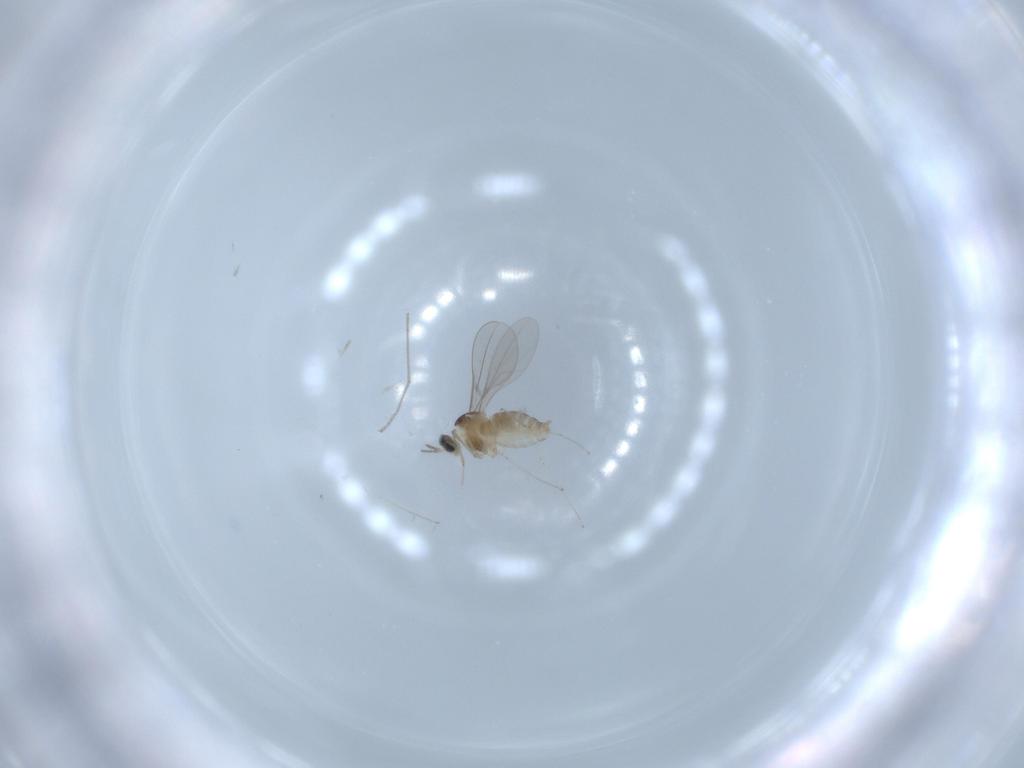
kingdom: Animalia
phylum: Arthropoda
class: Insecta
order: Diptera
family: Cecidomyiidae
